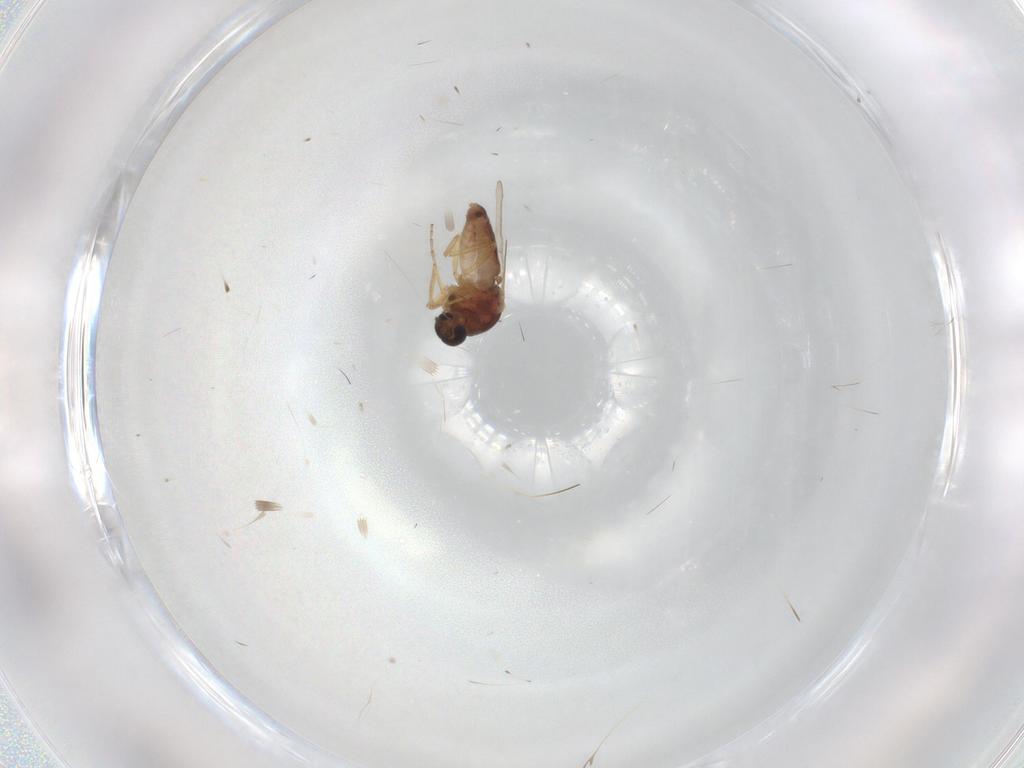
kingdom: Animalia
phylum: Arthropoda
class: Insecta
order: Diptera
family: Ceratopogonidae
